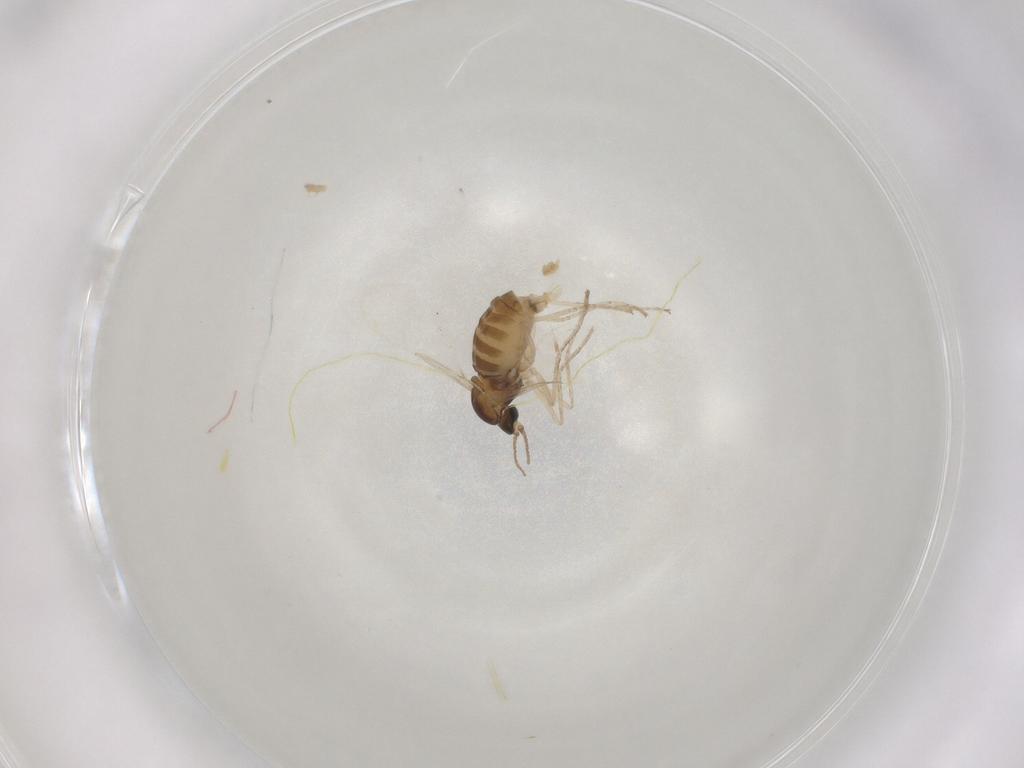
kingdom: Animalia
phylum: Arthropoda
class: Insecta
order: Diptera
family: Cecidomyiidae
